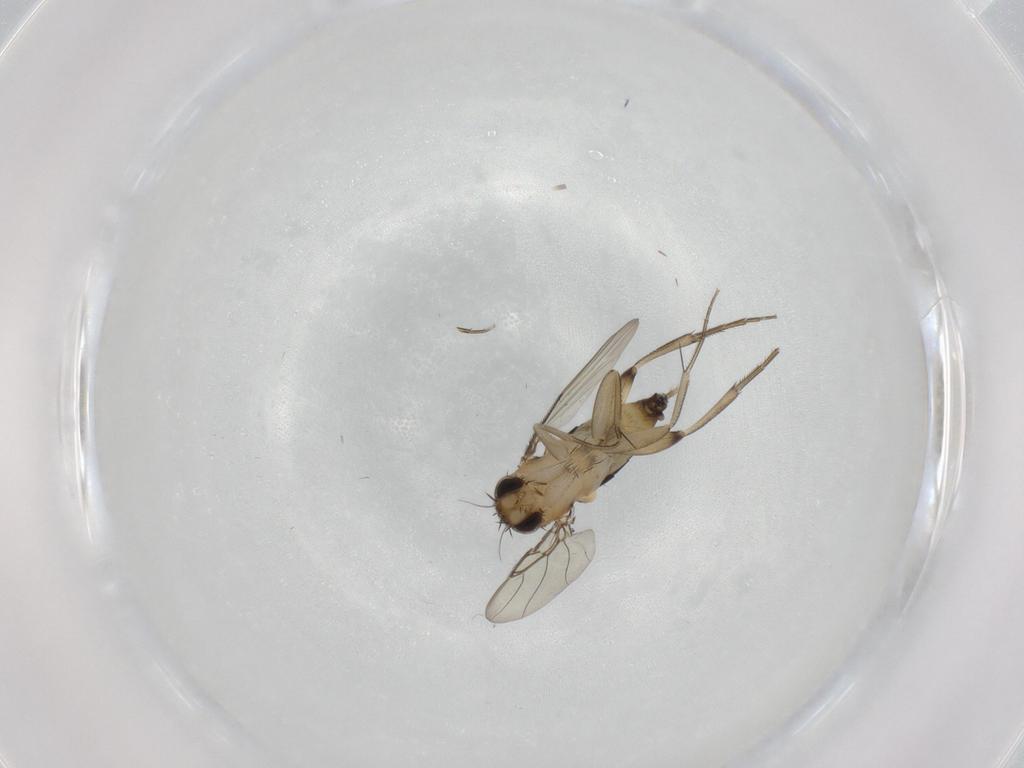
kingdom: Animalia
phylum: Arthropoda
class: Insecta
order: Diptera
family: Phoridae
